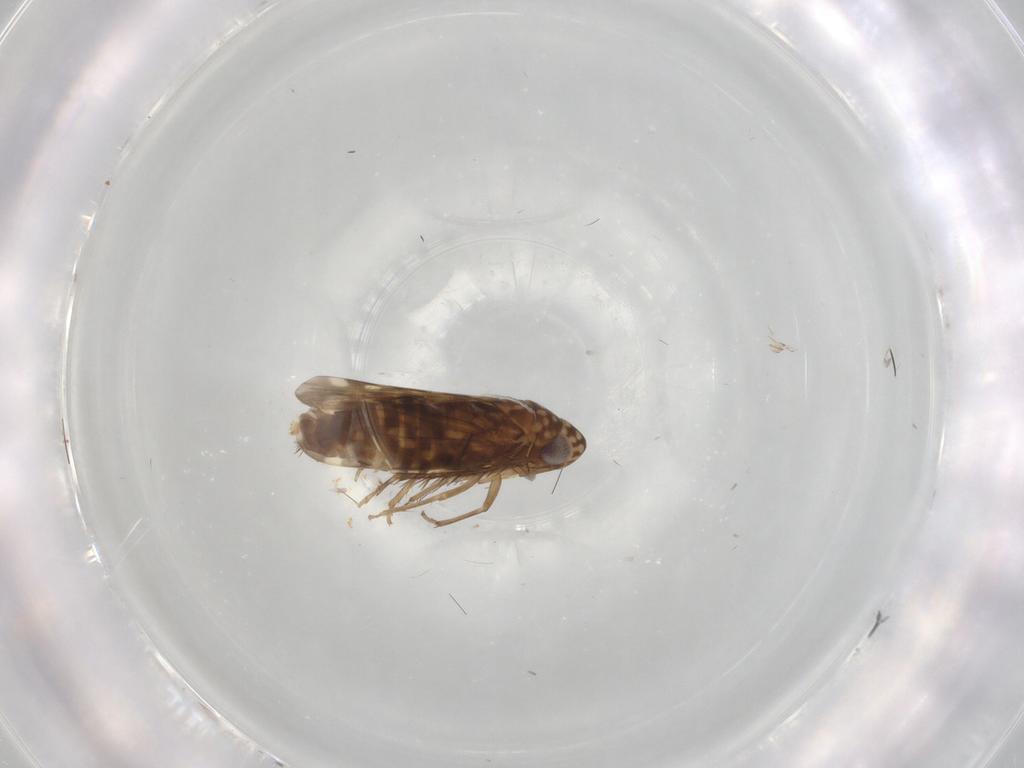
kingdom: Animalia
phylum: Arthropoda
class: Insecta
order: Hemiptera
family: Cicadellidae
